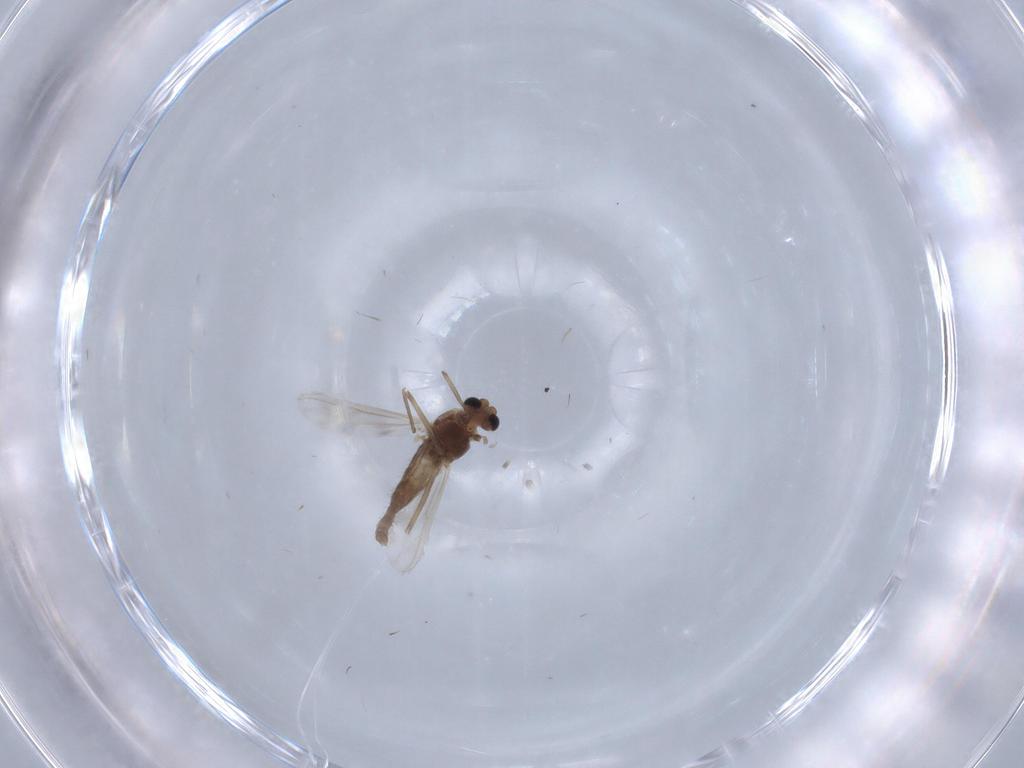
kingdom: Animalia
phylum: Arthropoda
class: Insecta
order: Diptera
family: Chironomidae
